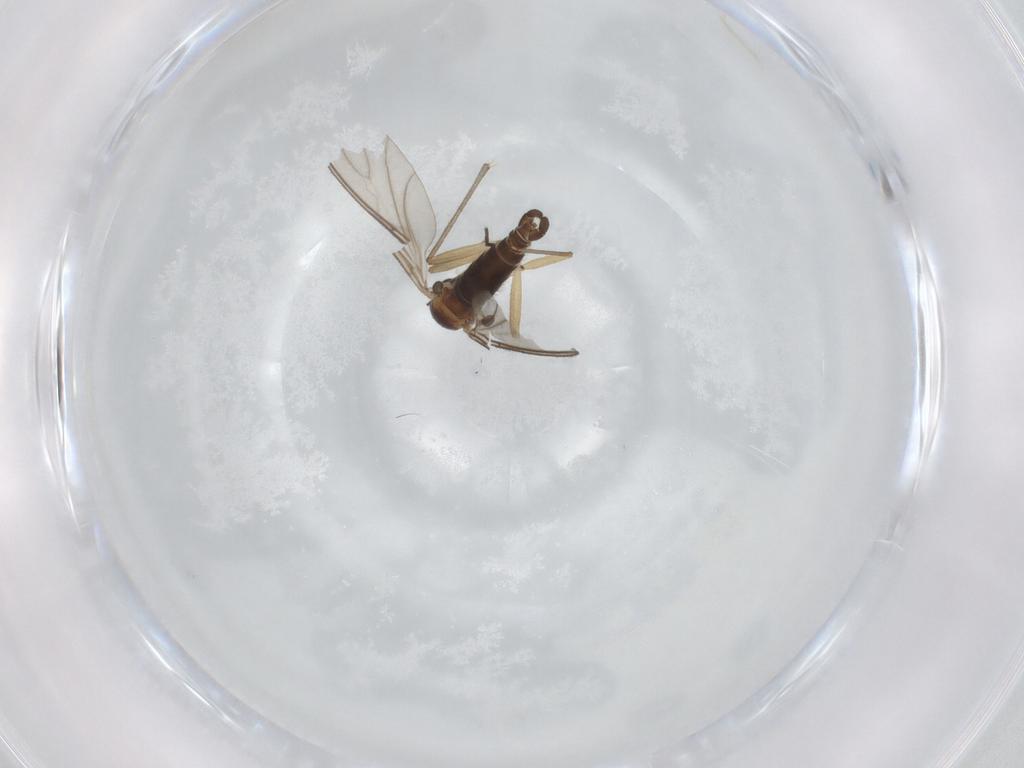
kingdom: Animalia
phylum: Arthropoda
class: Insecta
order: Diptera
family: Sciaridae
